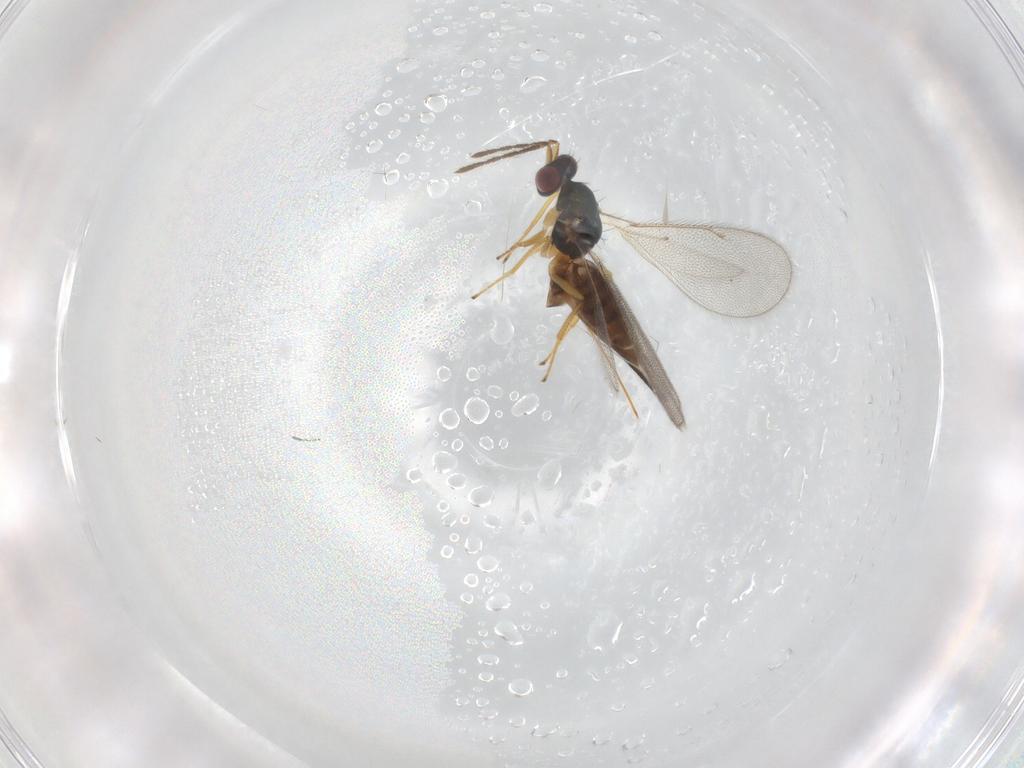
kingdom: Animalia
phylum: Arthropoda
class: Insecta
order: Hymenoptera
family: Eulophidae
